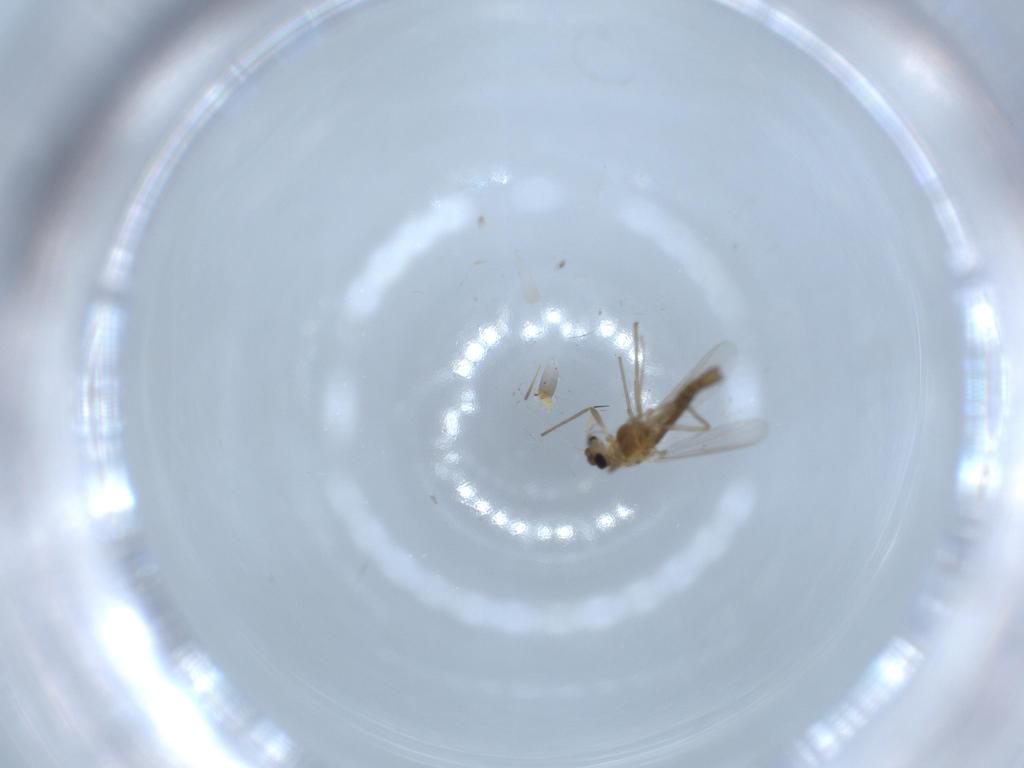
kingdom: Animalia
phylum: Arthropoda
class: Insecta
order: Diptera
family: Chironomidae
